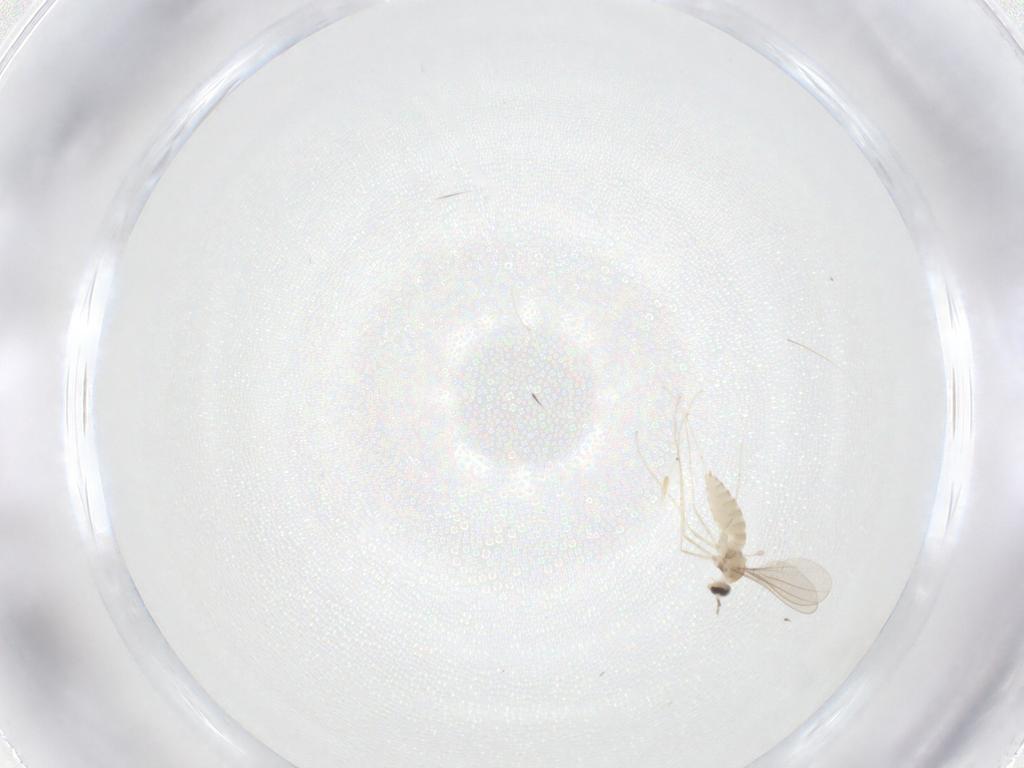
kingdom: Animalia
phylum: Arthropoda
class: Insecta
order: Diptera
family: Cecidomyiidae
